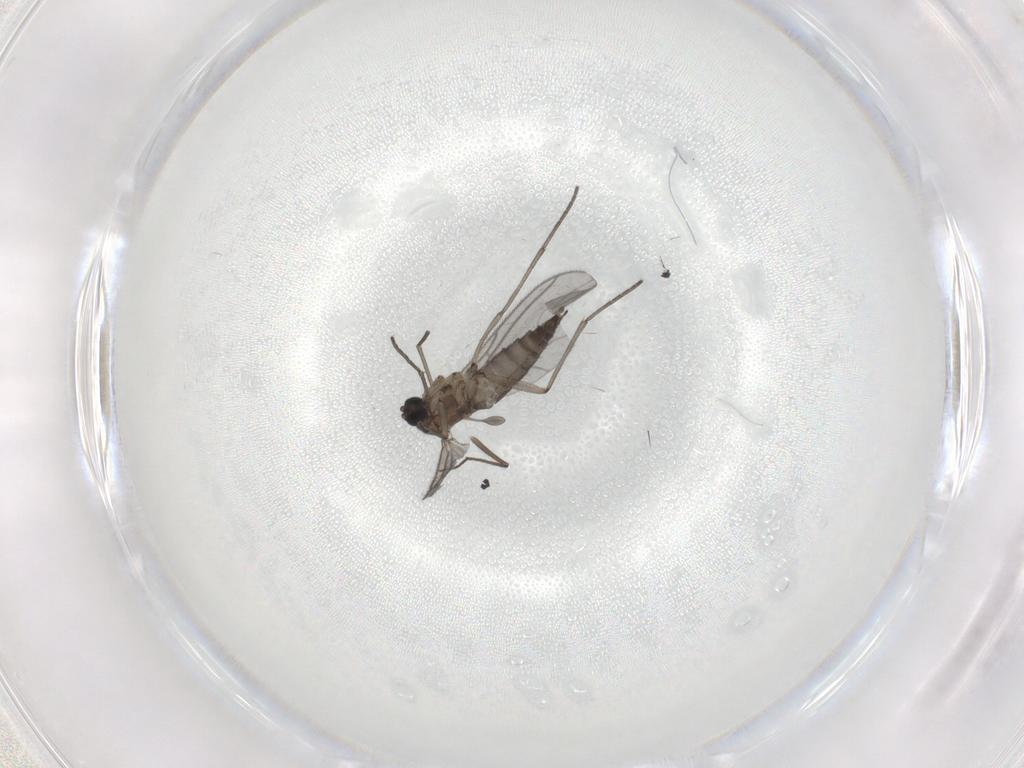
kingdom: Animalia
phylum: Arthropoda
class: Insecta
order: Diptera
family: Sciaridae
